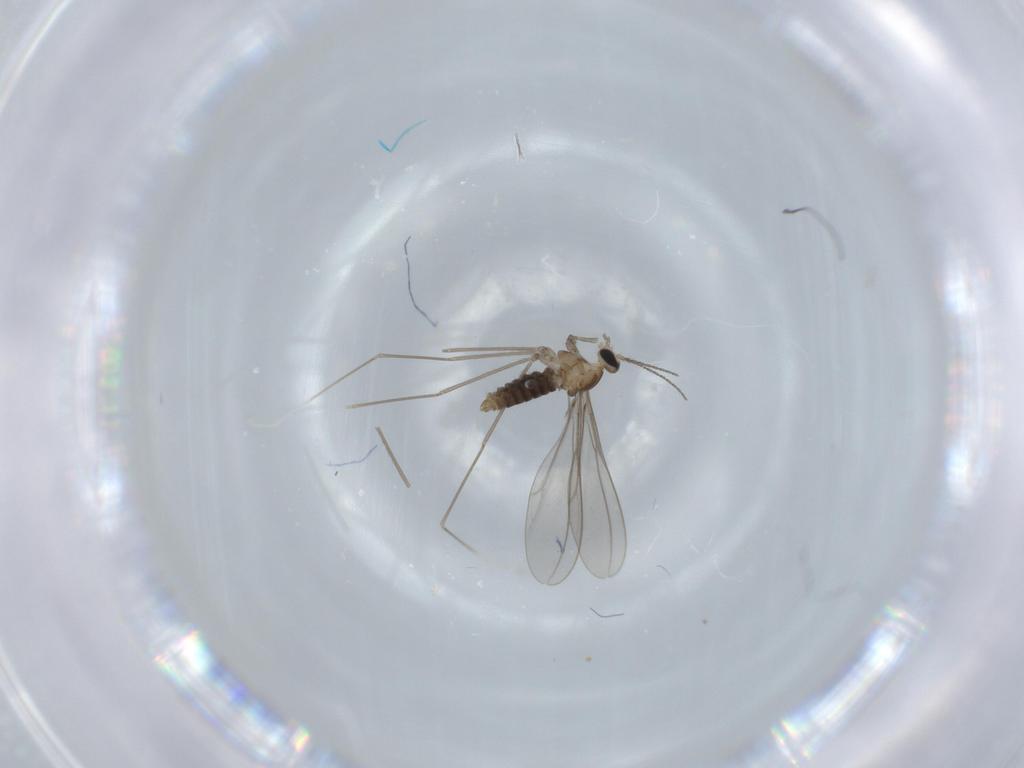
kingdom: Animalia
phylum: Arthropoda
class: Insecta
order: Diptera
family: Cecidomyiidae
